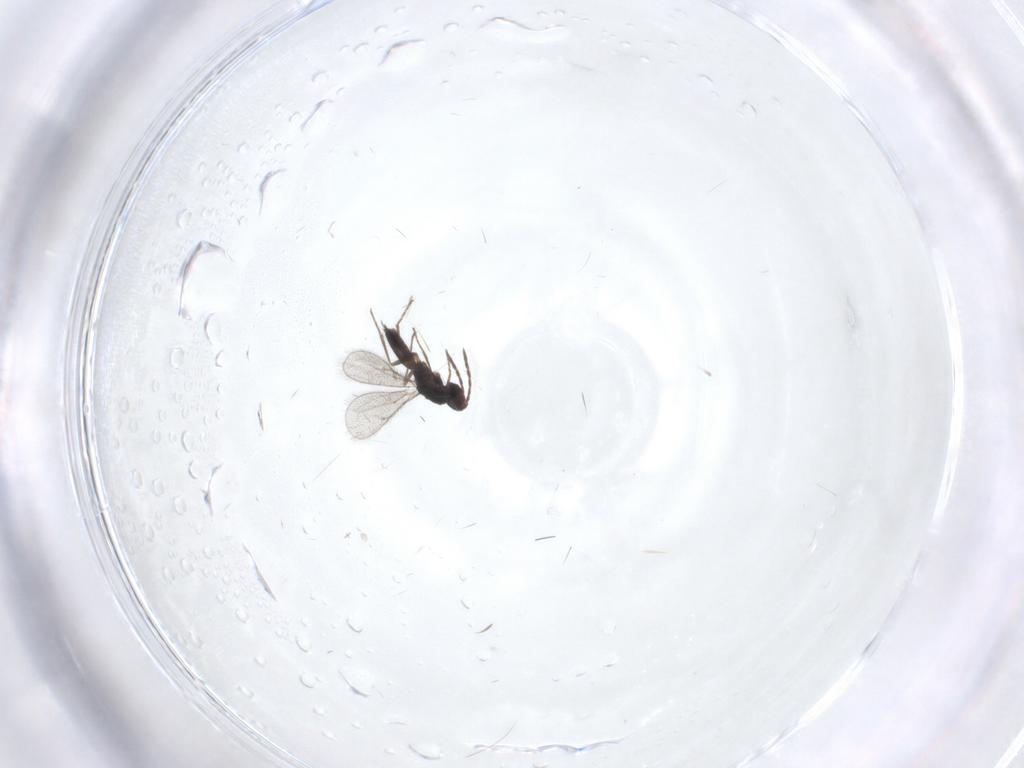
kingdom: Animalia
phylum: Arthropoda
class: Insecta
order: Hymenoptera
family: Eulophidae
